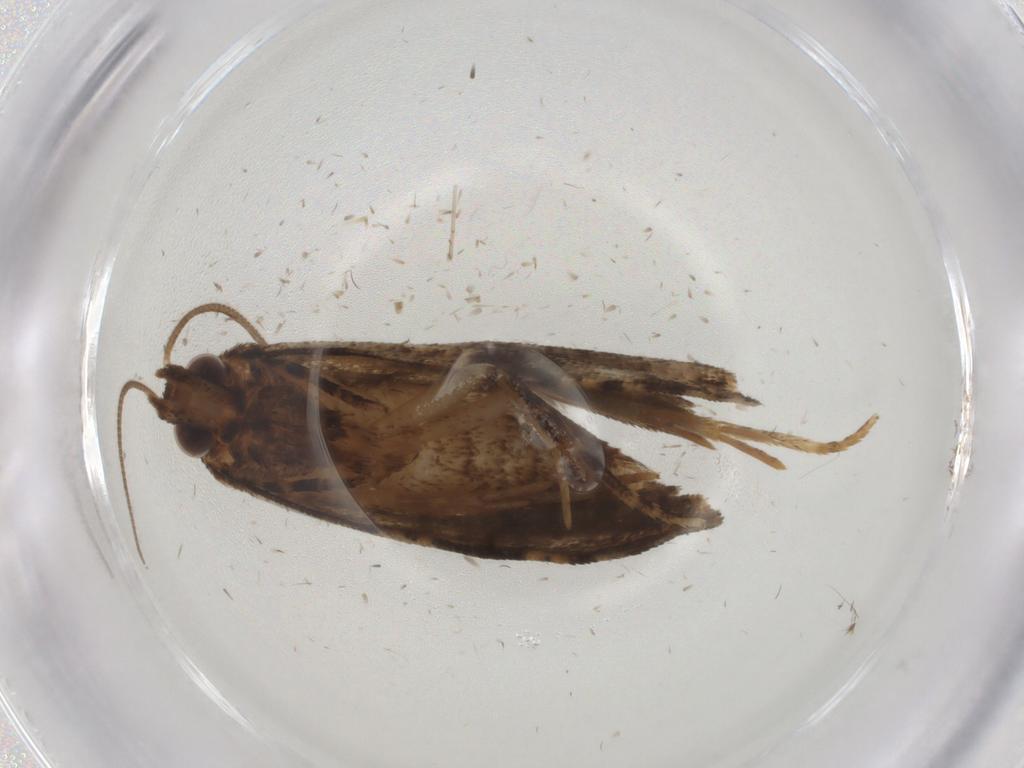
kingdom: Animalia
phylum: Arthropoda
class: Insecta
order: Lepidoptera
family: Tortricidae
